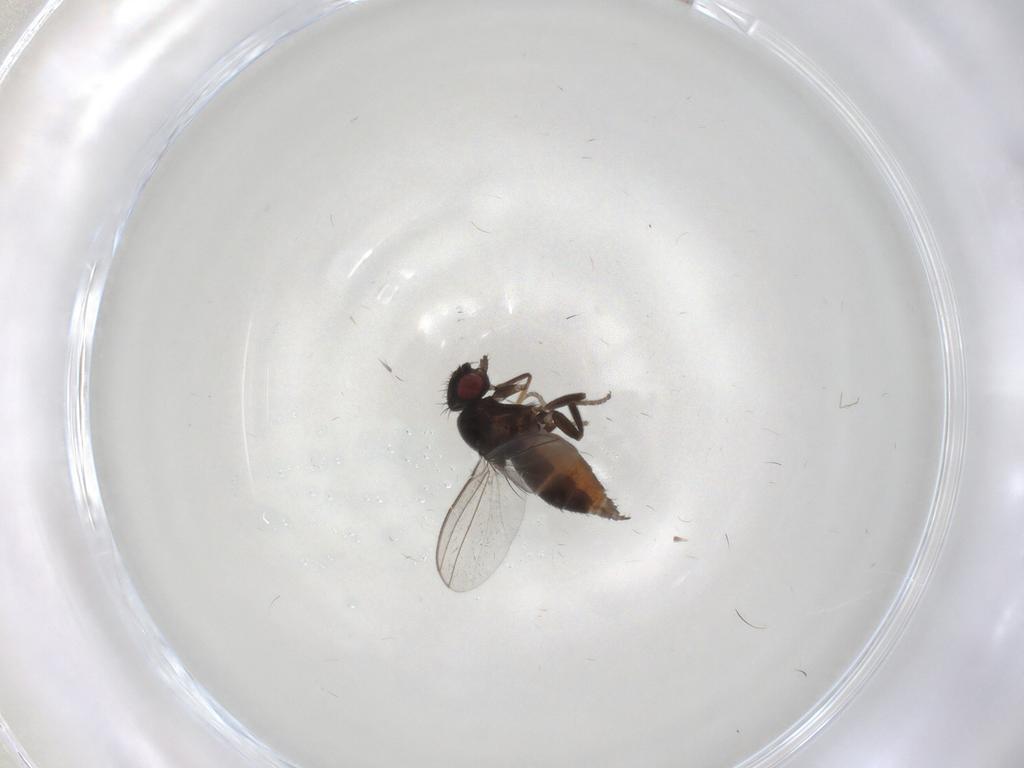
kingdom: Animalia
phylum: Arthropoda
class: Insecta
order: Diptera
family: Milichiidae
